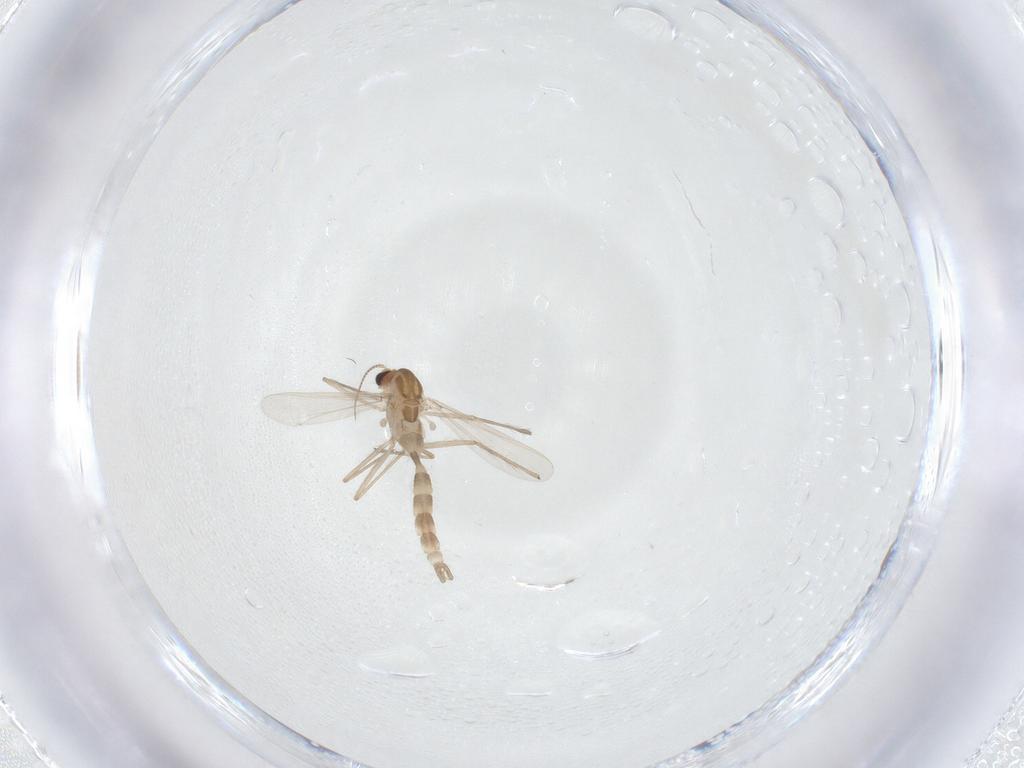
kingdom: Animalia
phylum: Arthropoda
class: Insecta
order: Diptera
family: Chironomidae
